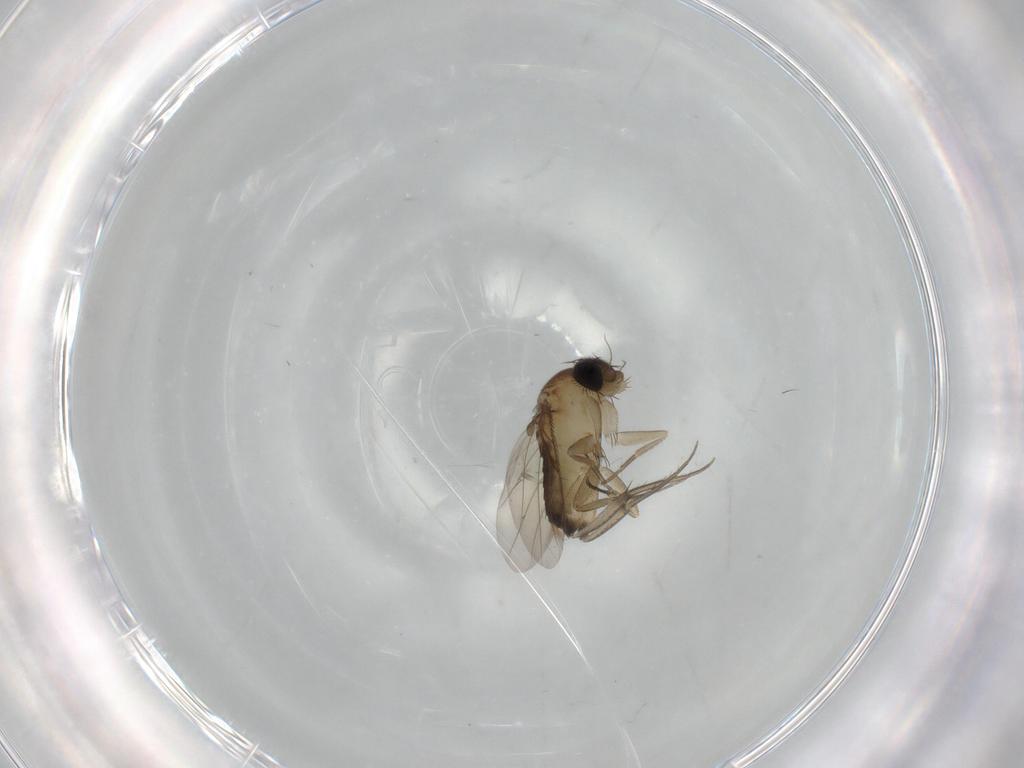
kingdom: Animalia
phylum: Arthropoda
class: Insecta
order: Diptera
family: Phoridae
